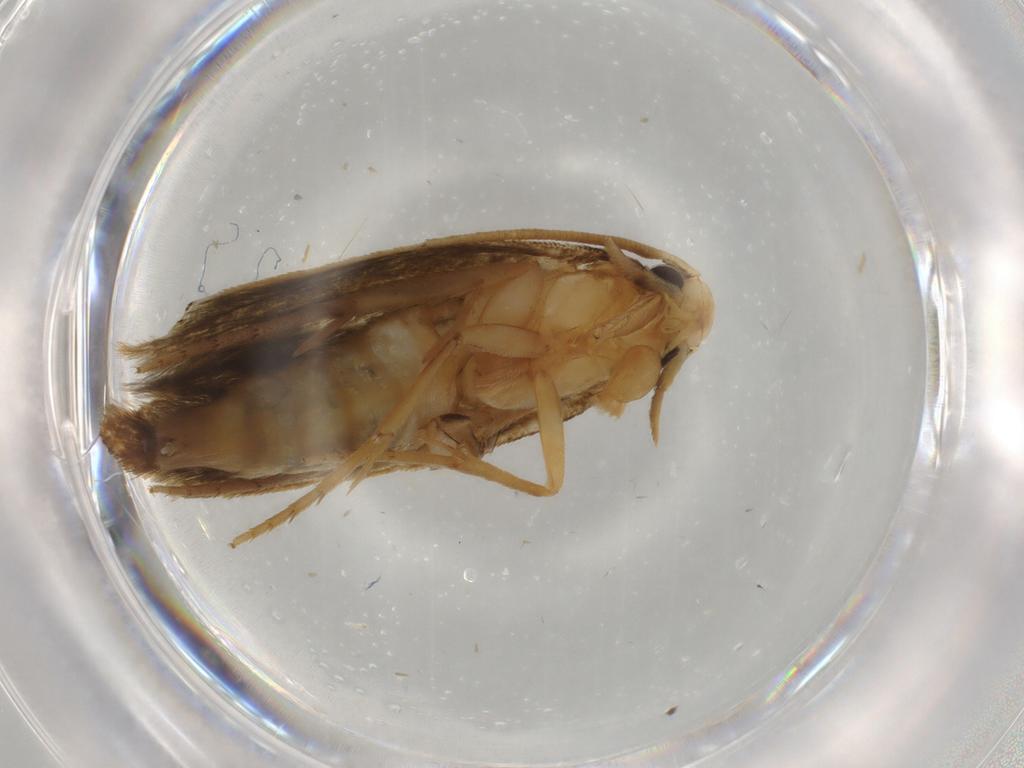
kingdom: Animalia
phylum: Arthropoda
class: Insecta
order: Lepidoptera
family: Tineidae
